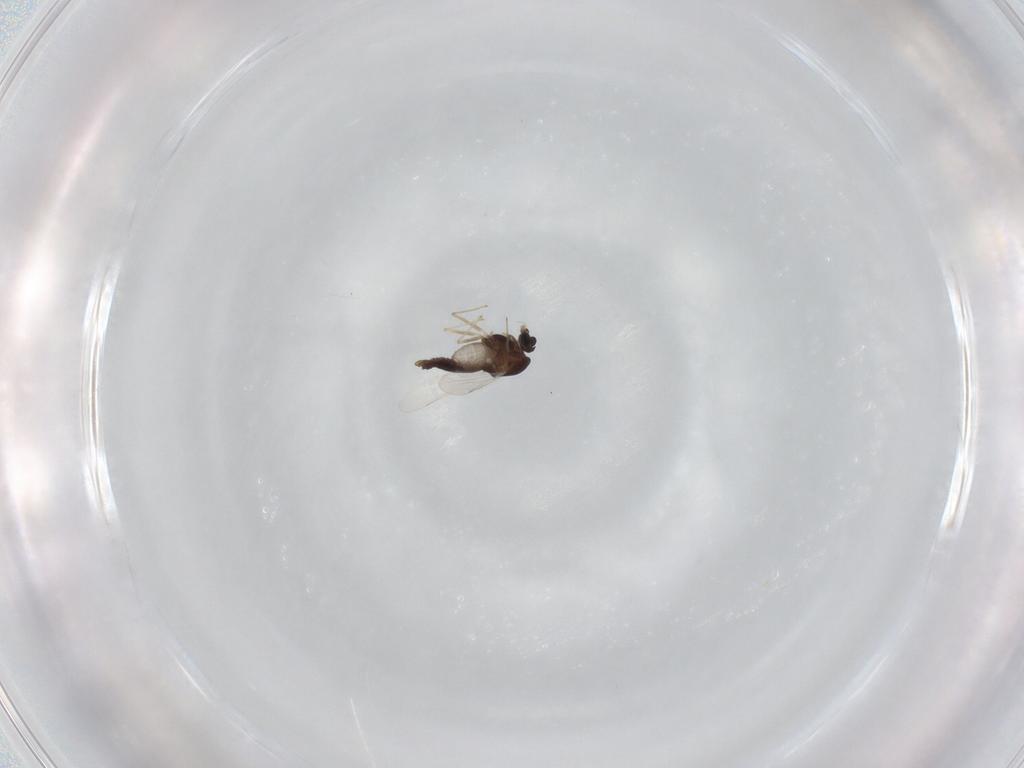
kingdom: Animalia
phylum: Arthropoda
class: Insecta
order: Diptera
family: Chironomidae
